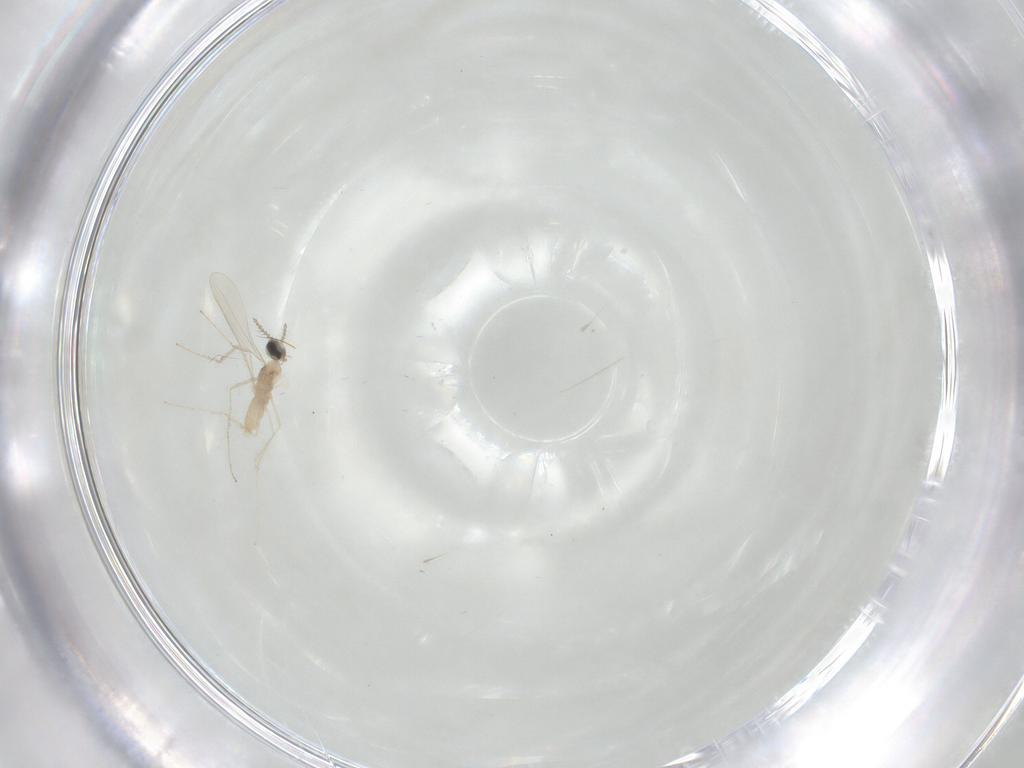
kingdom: Animalia
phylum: Arthropoda
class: Insecta
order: Diptera
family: Cecidomyiidae
